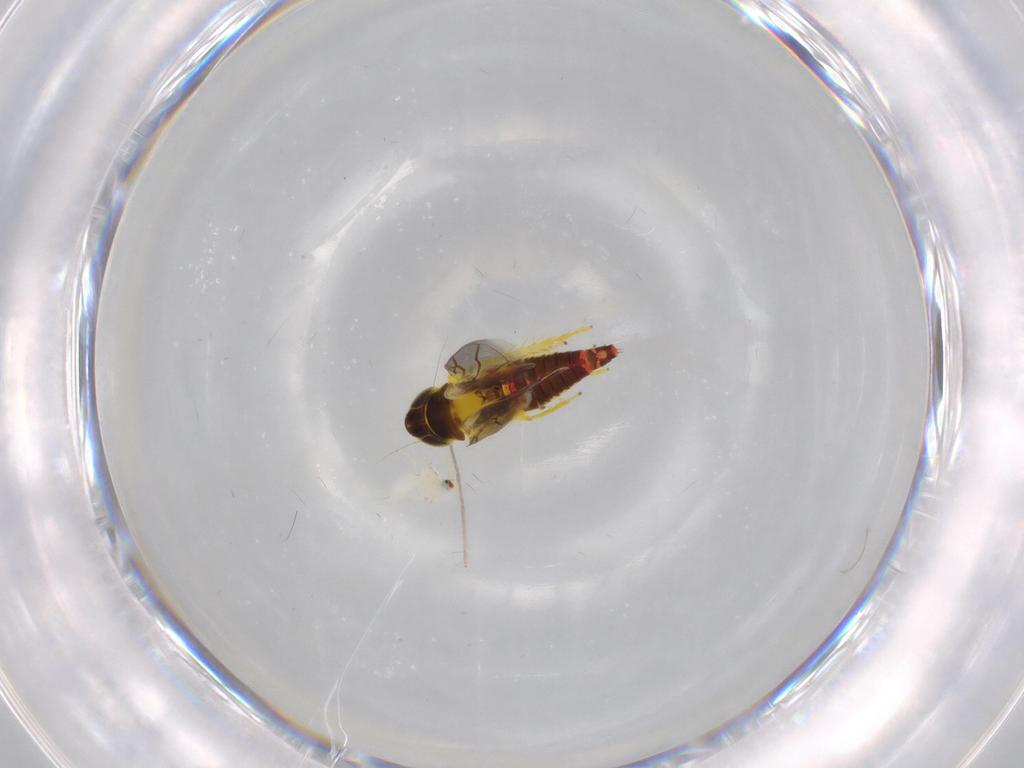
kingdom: Animalia
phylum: Arthropoda
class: Insecta
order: Hemiptera
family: Cicadellidae
